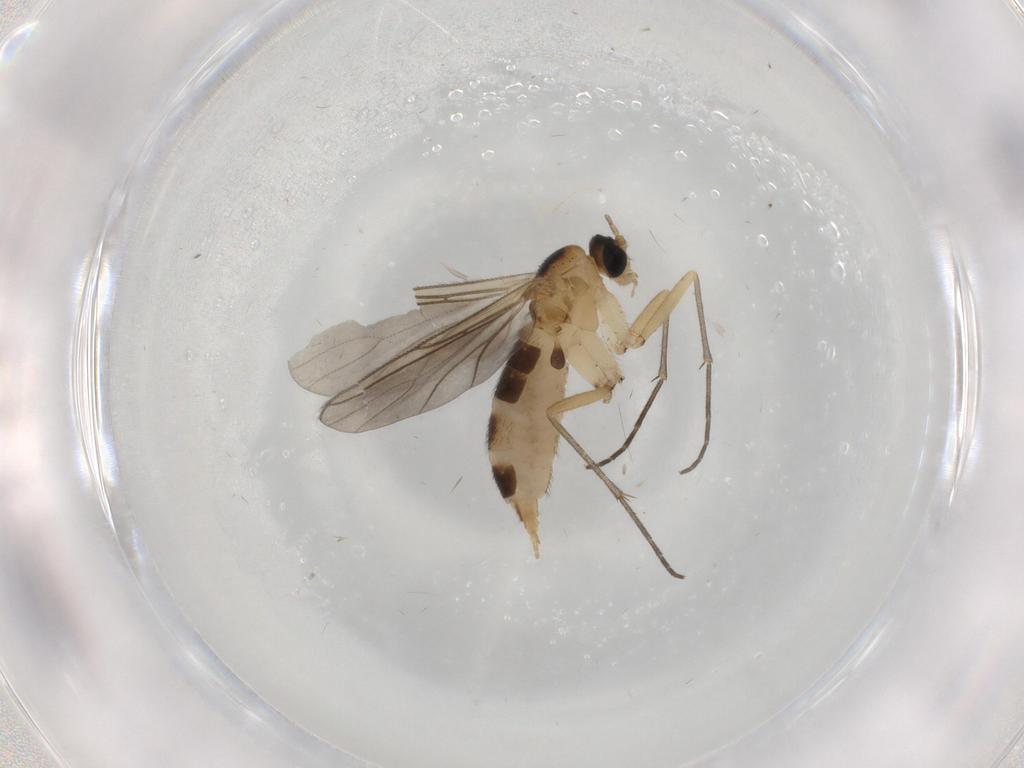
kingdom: Animalia
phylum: Arthropoda
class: Insecta
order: Diptera
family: Sciaridae
